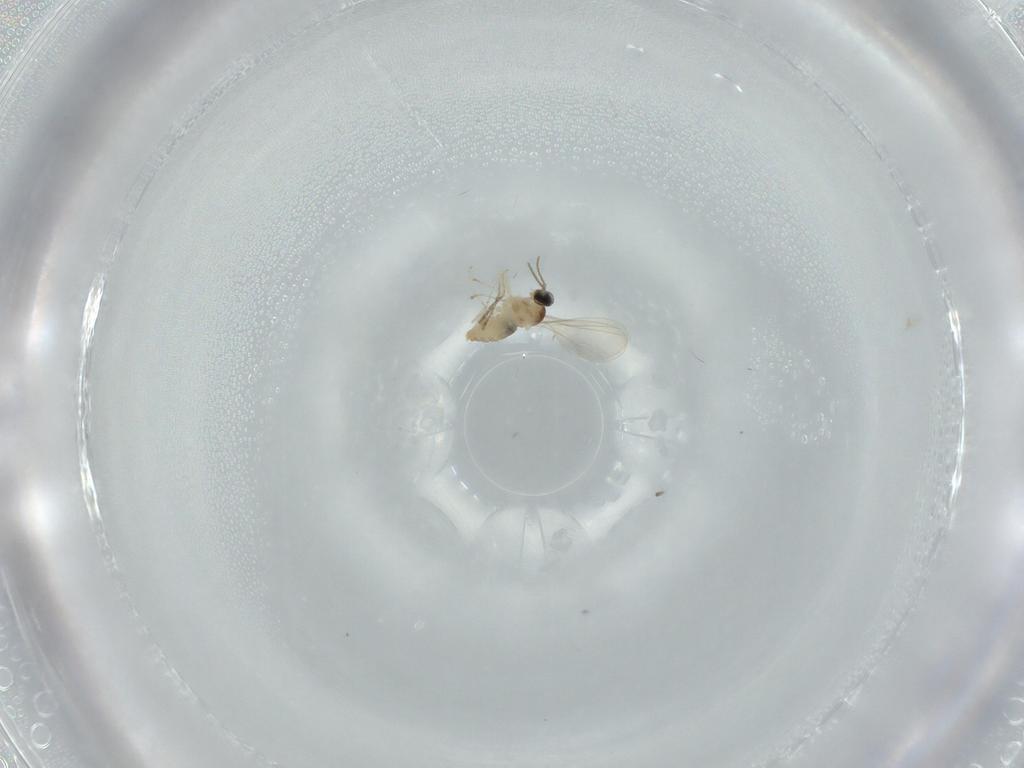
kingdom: Animalia
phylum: Arthropoda
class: Insecta
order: Diptera
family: Cecidomyiidae
